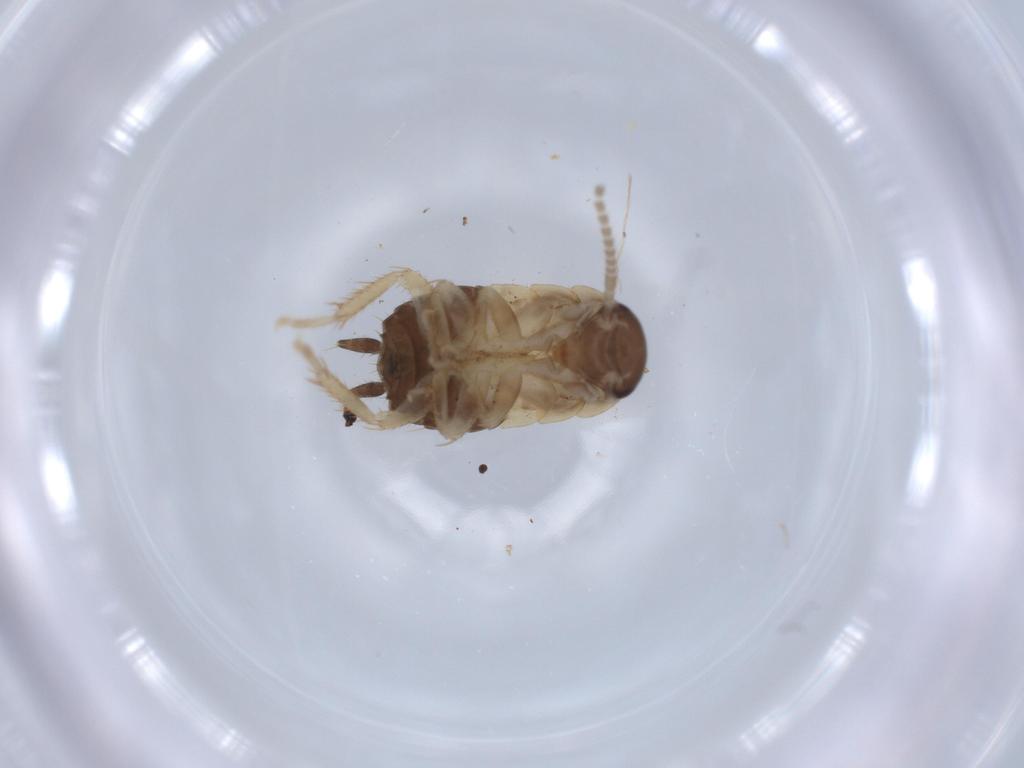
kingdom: Animalia
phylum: Arthropoda
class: Insecta
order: Blattodea
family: Ectobiidae
